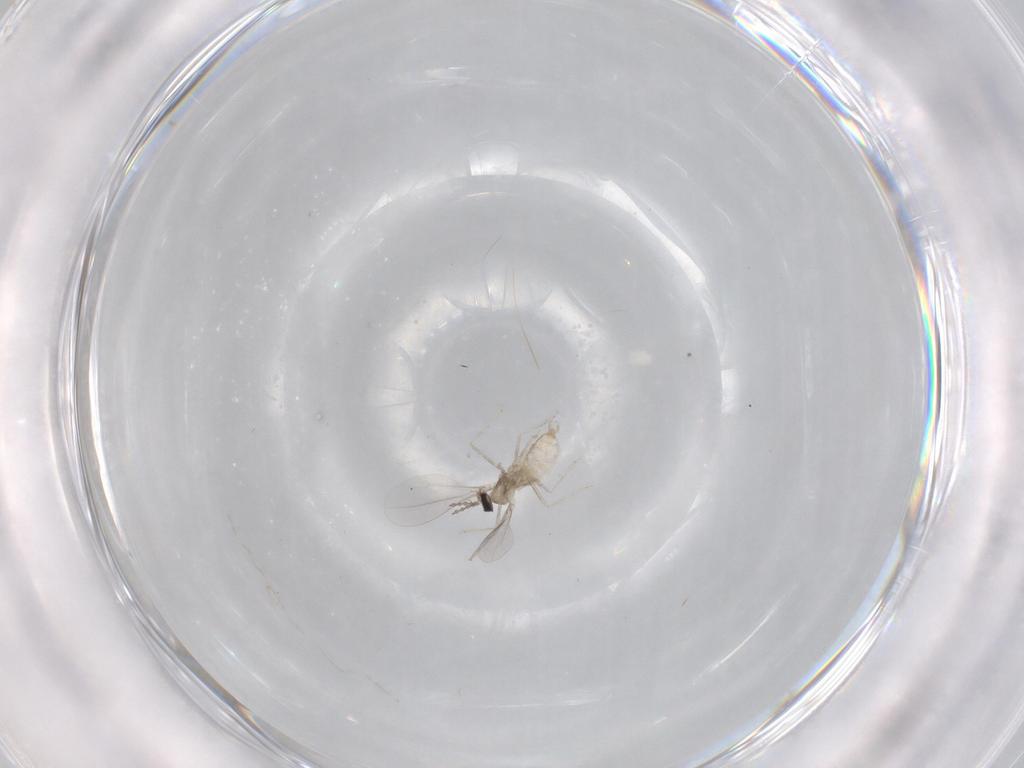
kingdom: Animalia
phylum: Arthropoda
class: Insecta
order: Diptera
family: Cecidomyiidae
